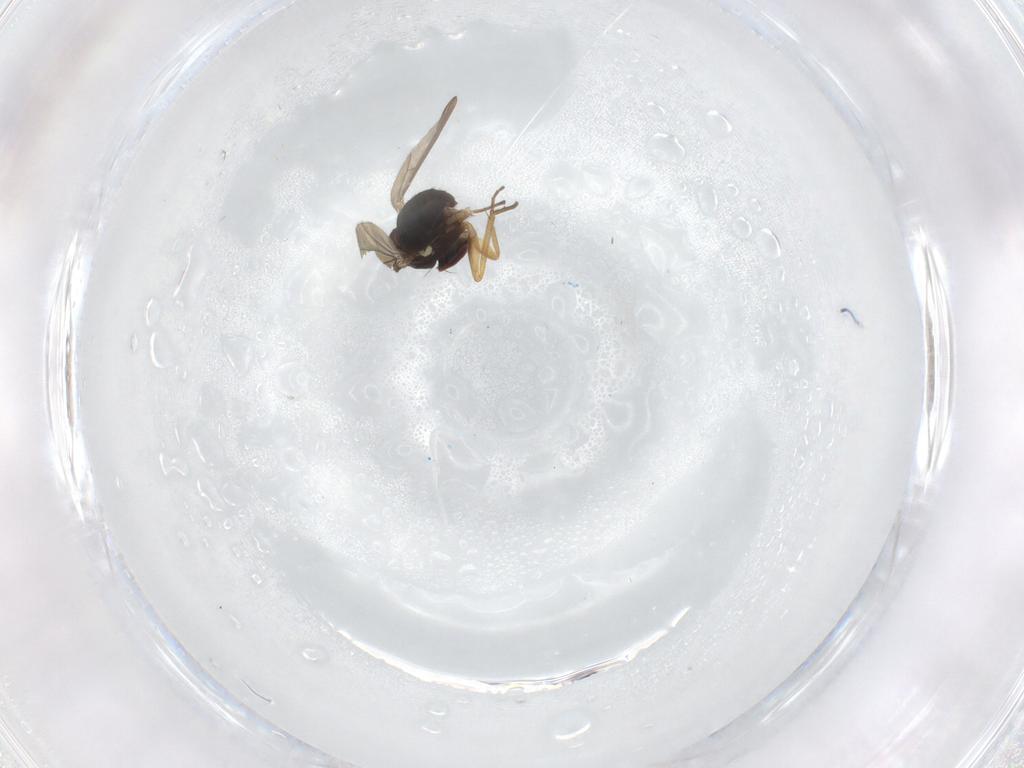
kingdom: Animalia
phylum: Arthropoda
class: Insecta
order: Diptera
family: Dolichopodidae
